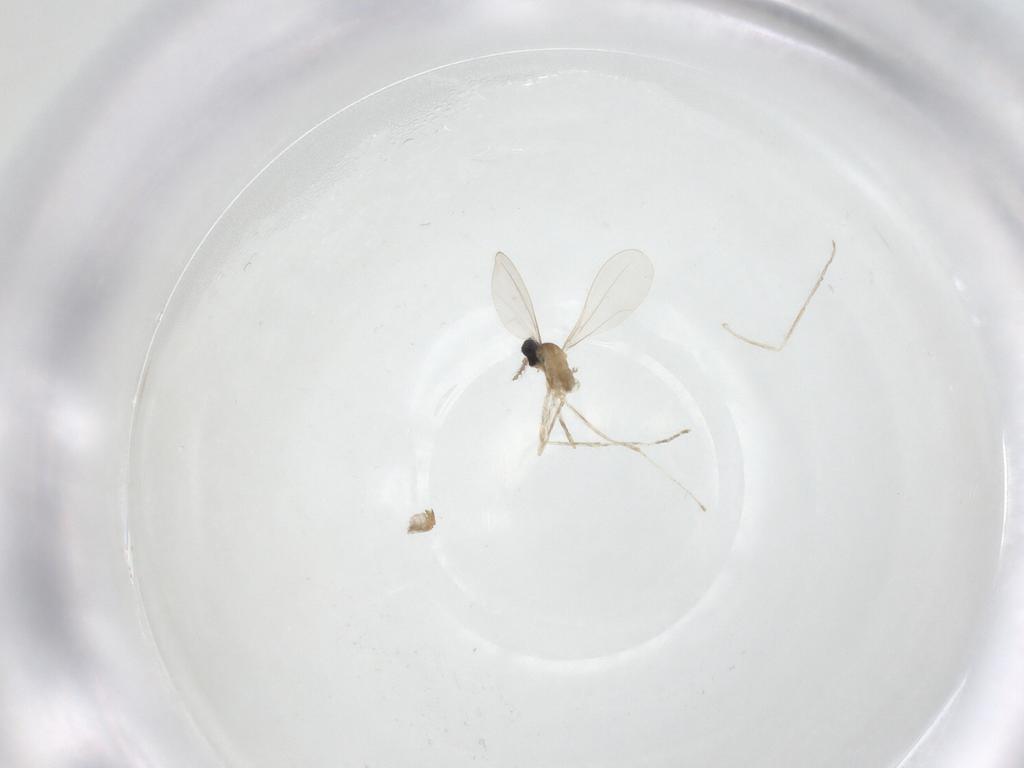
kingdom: Animalia
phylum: Arthropoda
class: Insecta
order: Diptera
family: Cecidomyiidae
